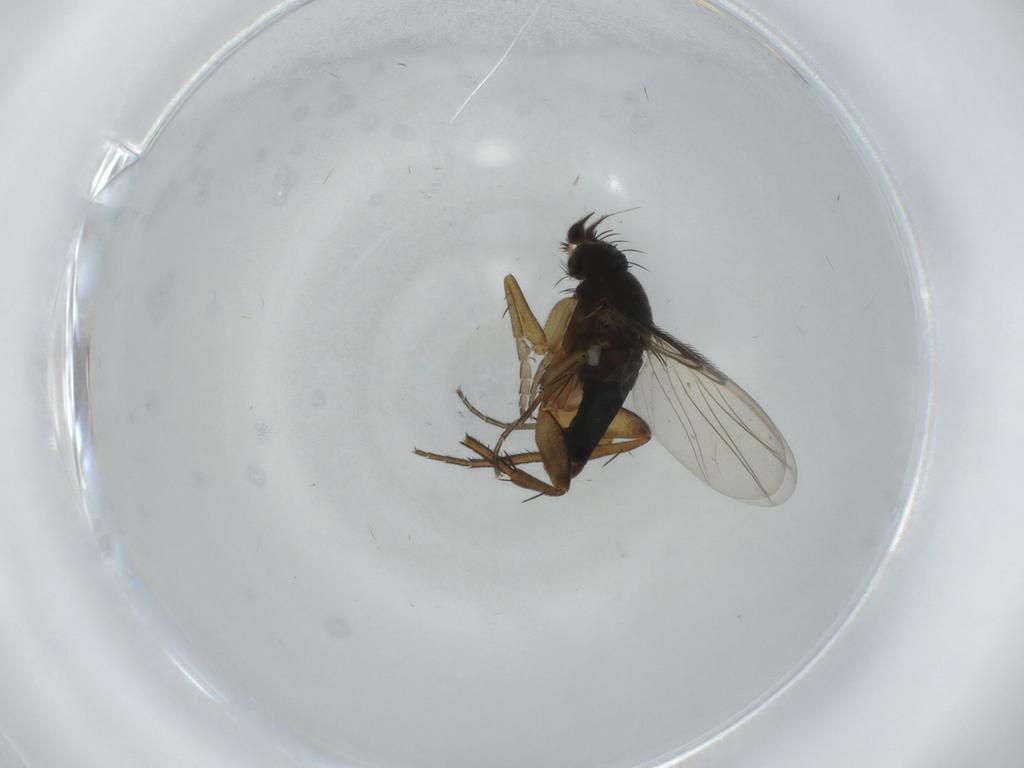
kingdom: Animalia
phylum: Arthropoda
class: Insecta
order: Diptera
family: Phoridae
